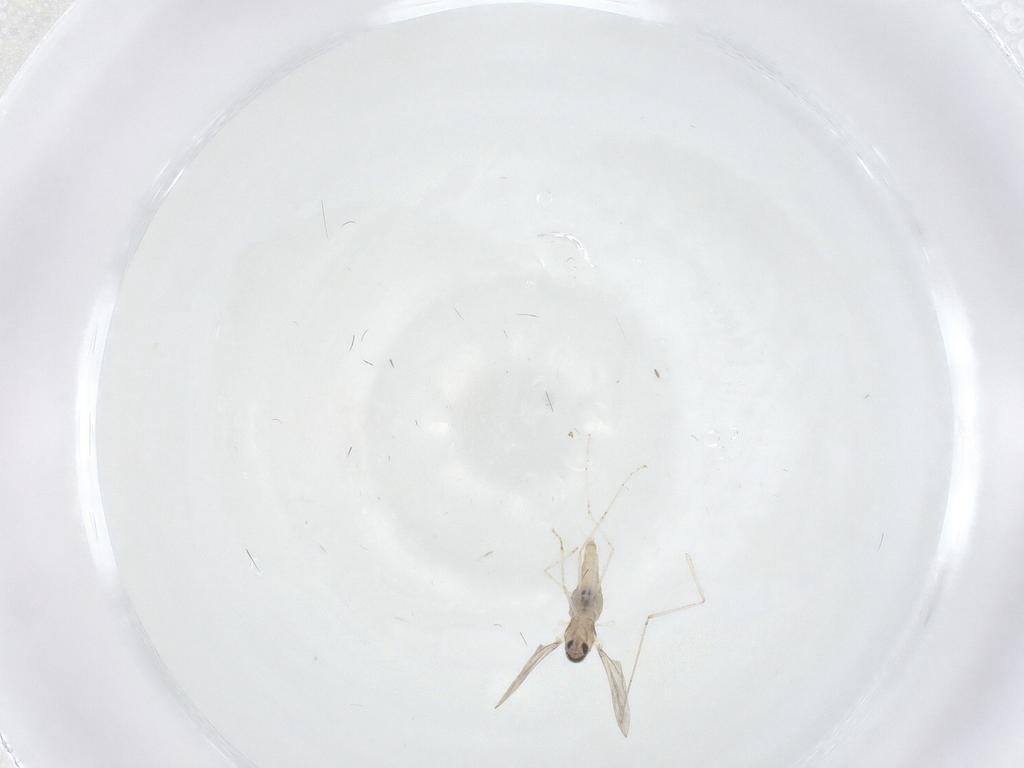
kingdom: Animalia
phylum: Arthropoda
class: Insecta
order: Diptera
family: Cecidomyiidae
